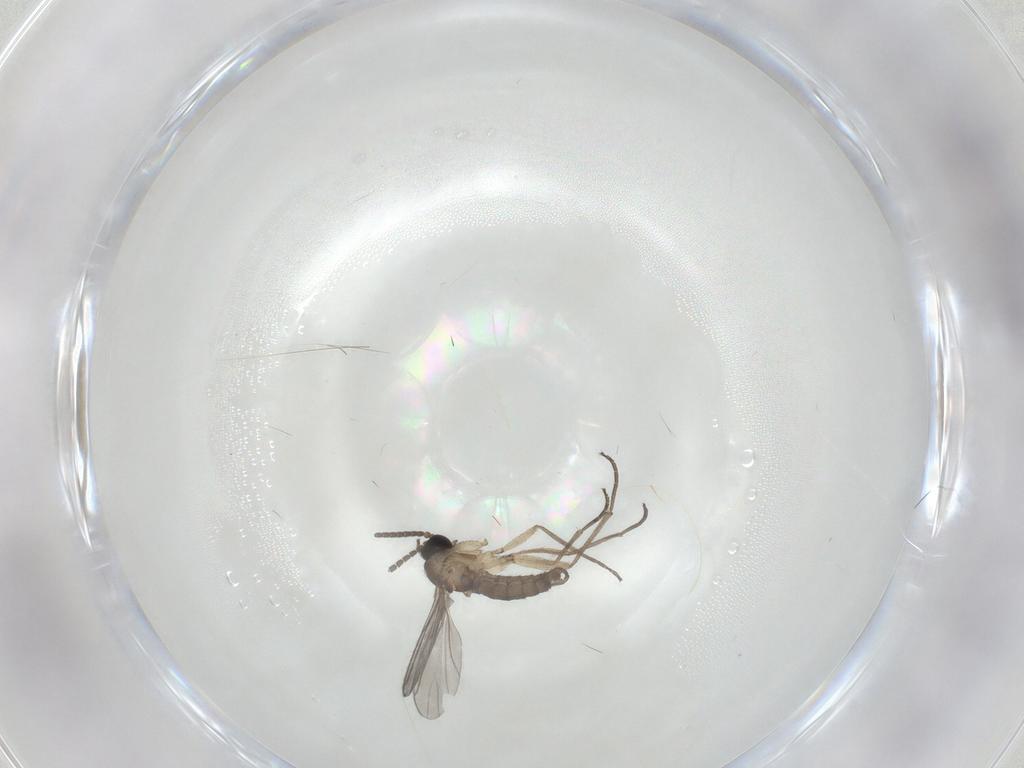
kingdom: Animalia
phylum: Arthropoda
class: Insecta
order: Diptera
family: Sciaridae
